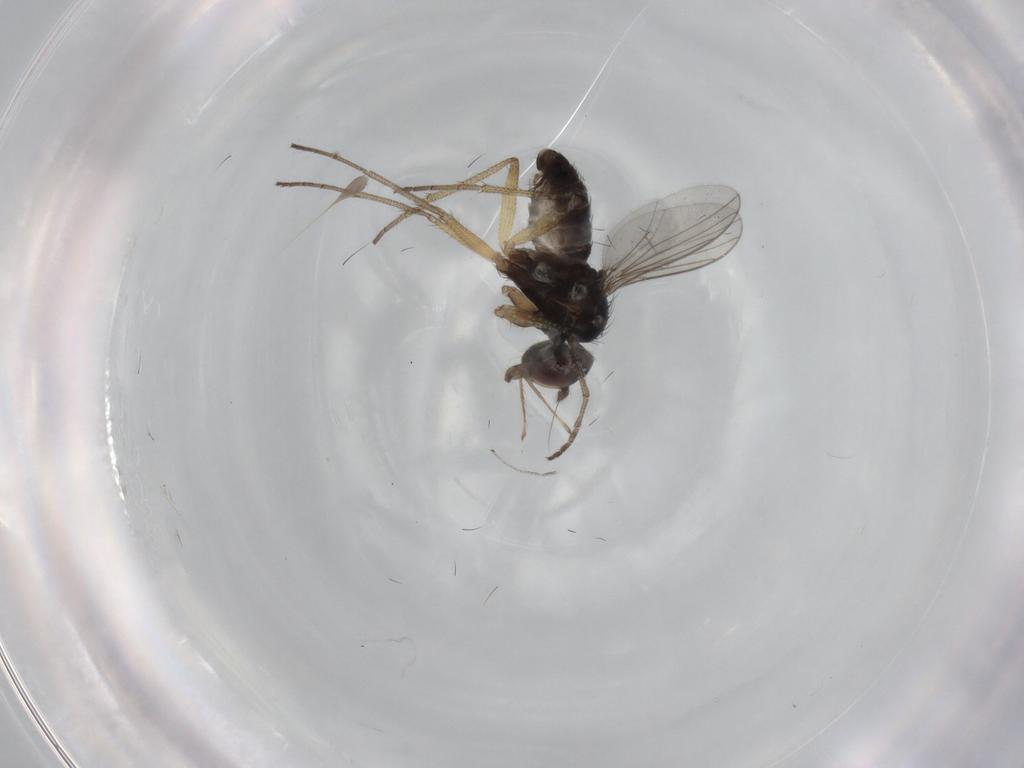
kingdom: Animalia
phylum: Arthropoda
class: Insecta
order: Diptera
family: Dolichopodidae
